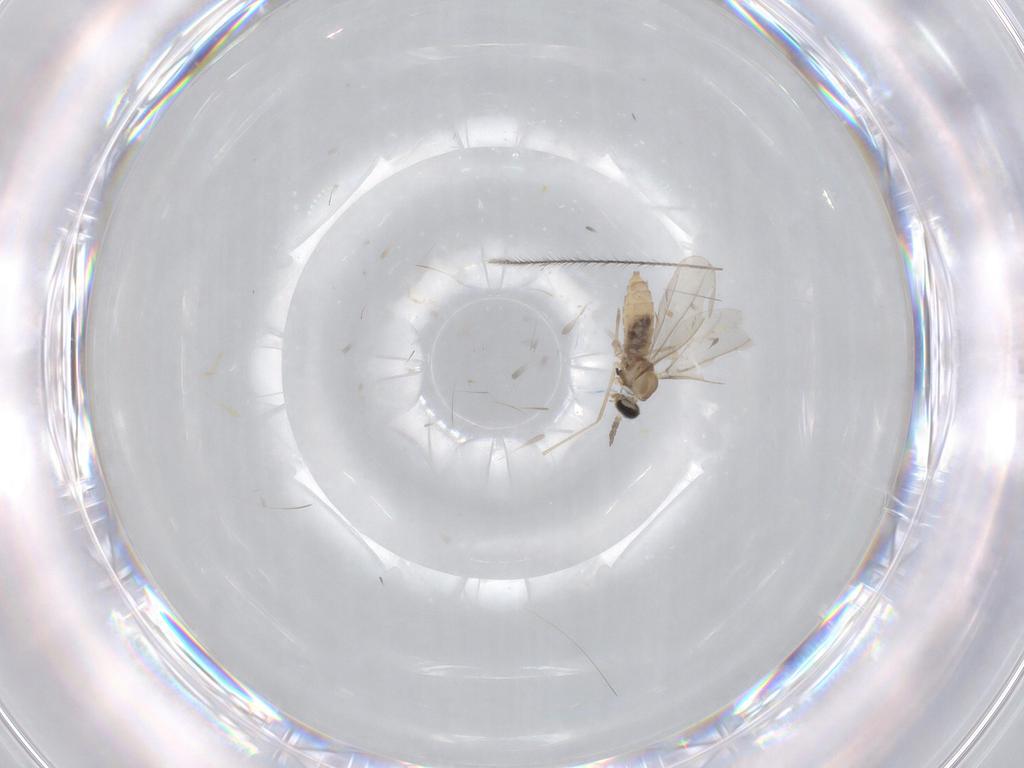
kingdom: Animalia
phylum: Arthropoda
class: Insecta
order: Diptera
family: Cecidomyiidae
